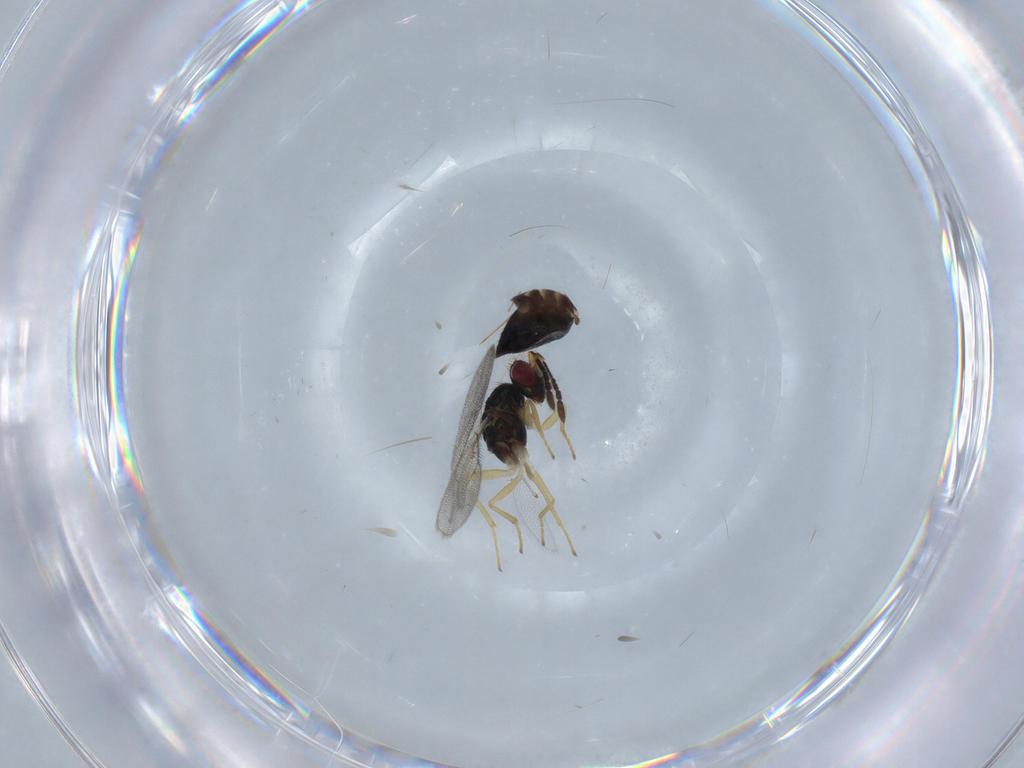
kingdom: Animalia
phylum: Arthropoda
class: Insecta
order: Hymenoptera
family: Eulophidae
